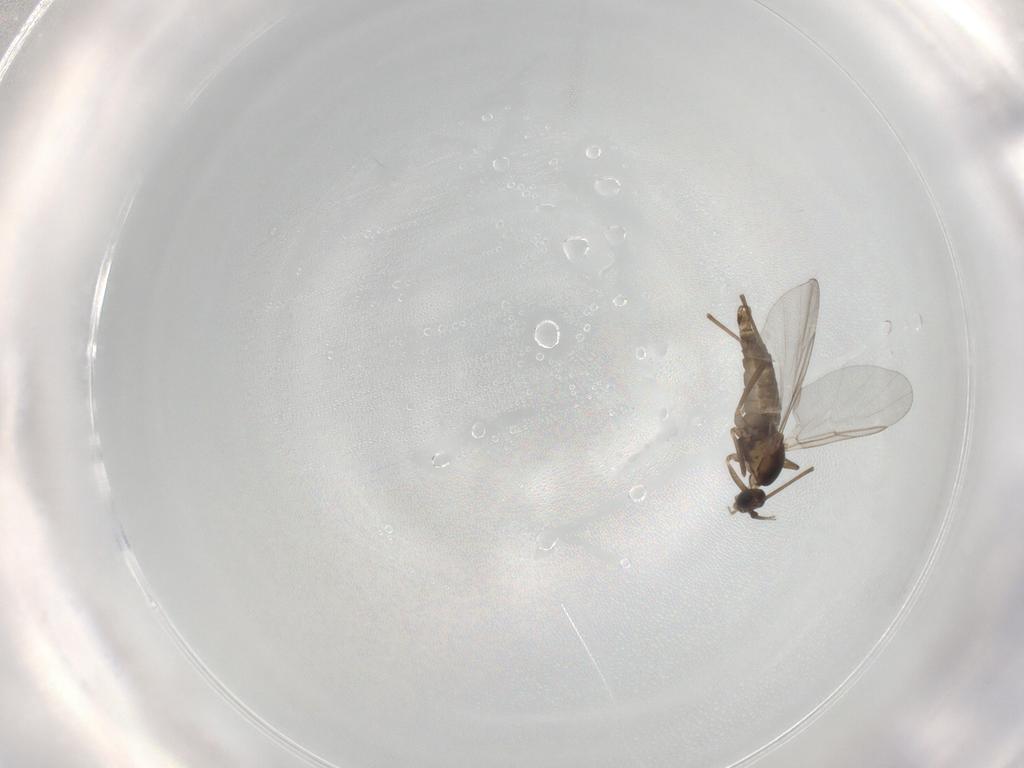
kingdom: Animalia
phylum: Arthropoda
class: Insecta
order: Diptera
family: Cecidomyiidae
